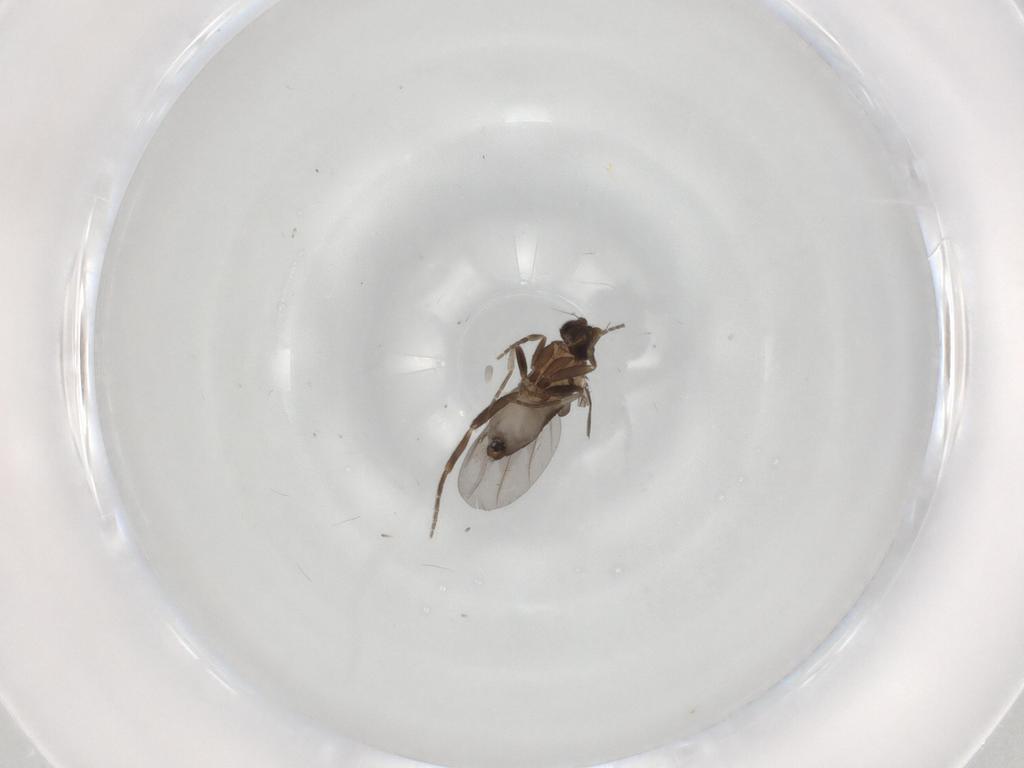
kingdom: Animalia
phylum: Arthropoda
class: Insecta
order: Diptera
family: Phoridae
